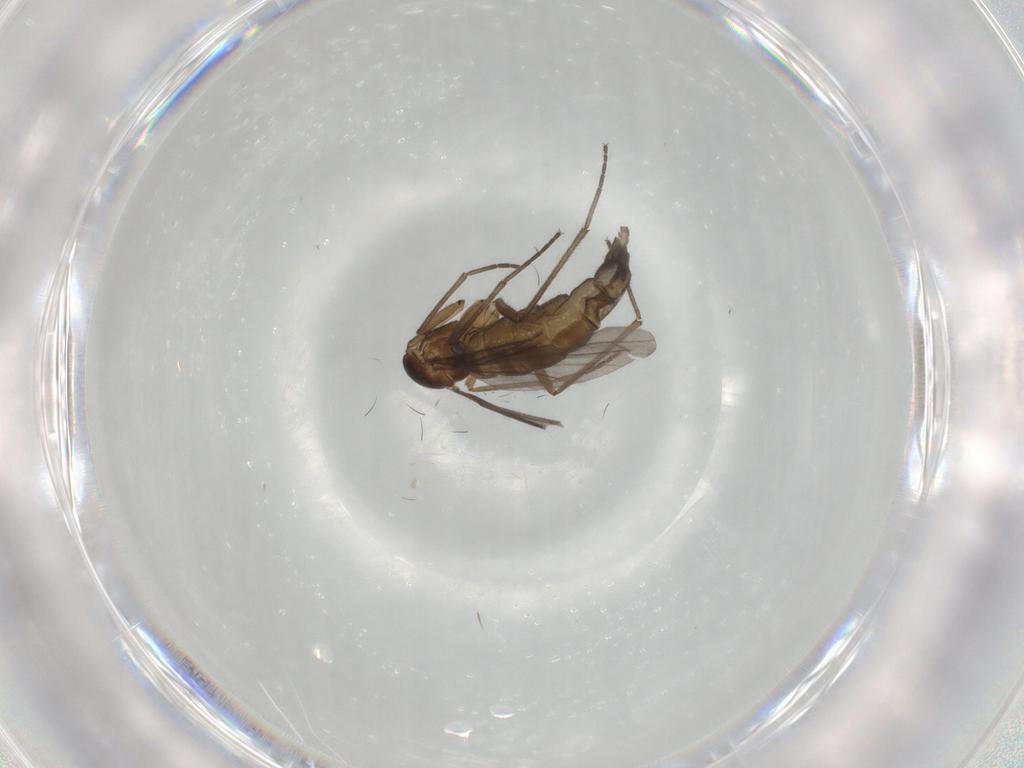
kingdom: Animalia
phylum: Arthropoda
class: Insecta
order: Diptera
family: Sciaridae
